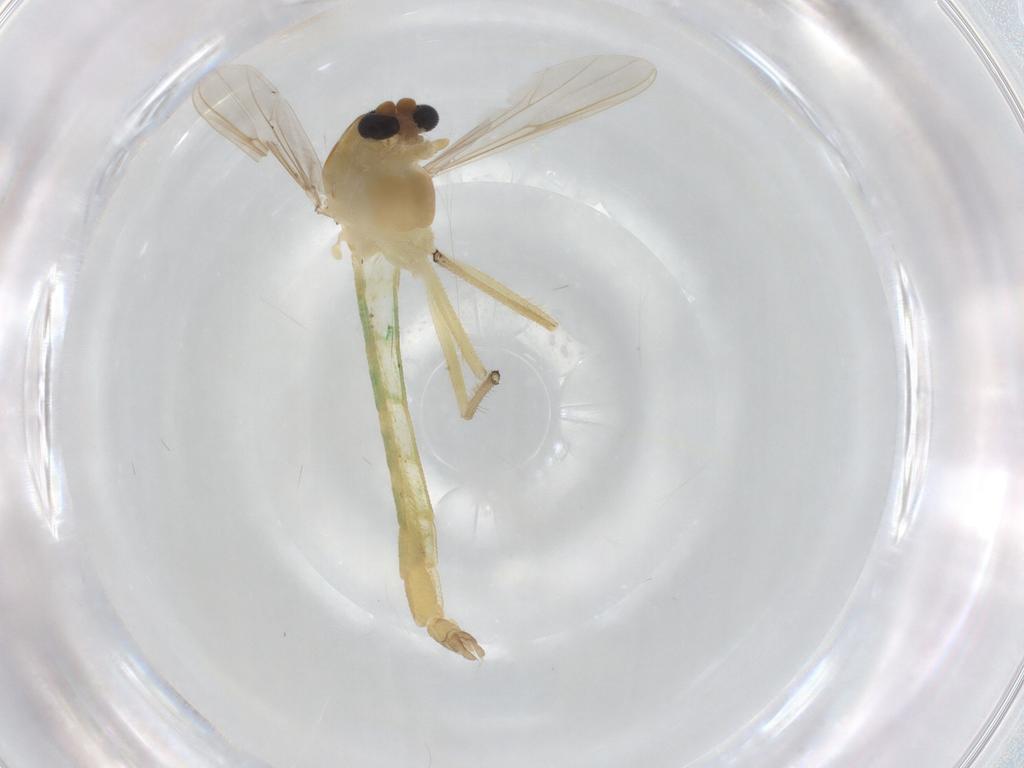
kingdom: Animalia
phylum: Arthropoda
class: Insecta
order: Diptera
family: Chironomidae
